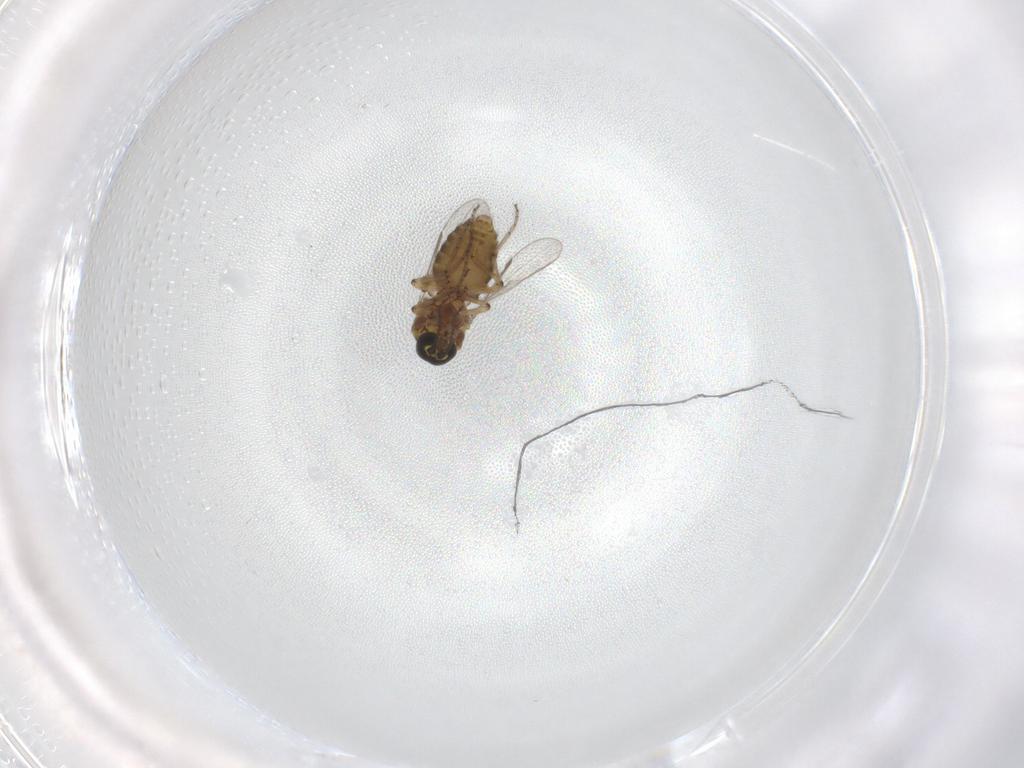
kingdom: Animalia
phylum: Arthropoda
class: Insecta
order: Diptera
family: Ceratopogonidae
